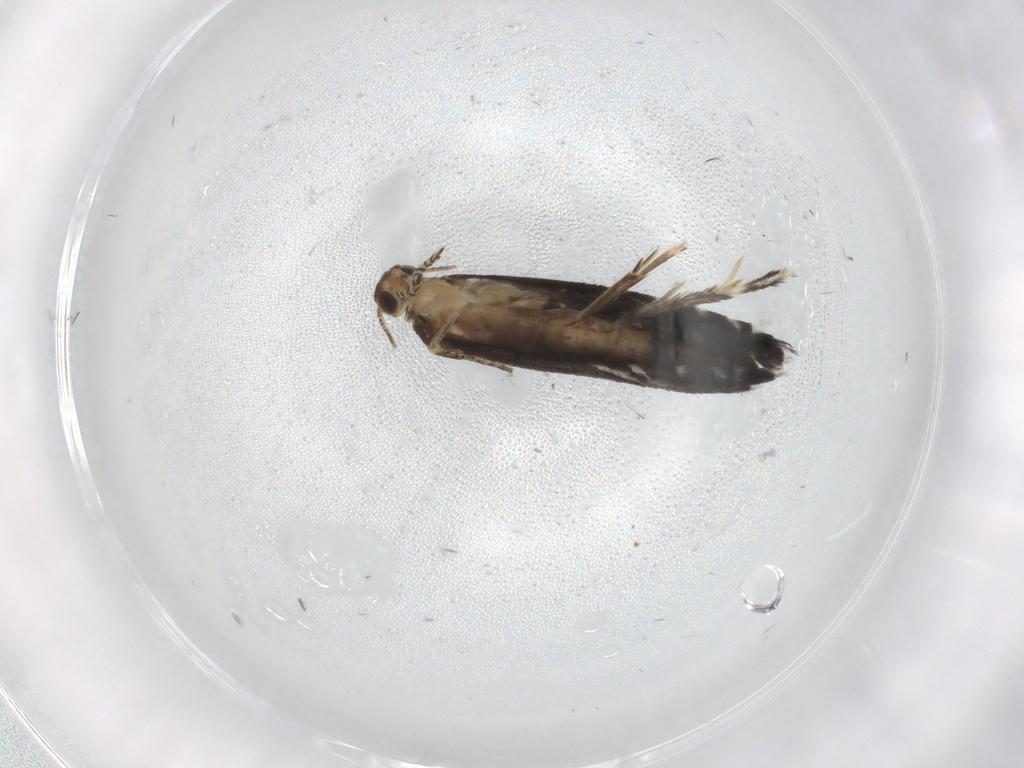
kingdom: Animalia
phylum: Arthropoda
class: Insecta
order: Lepidoptera
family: Glyphipterigidae
